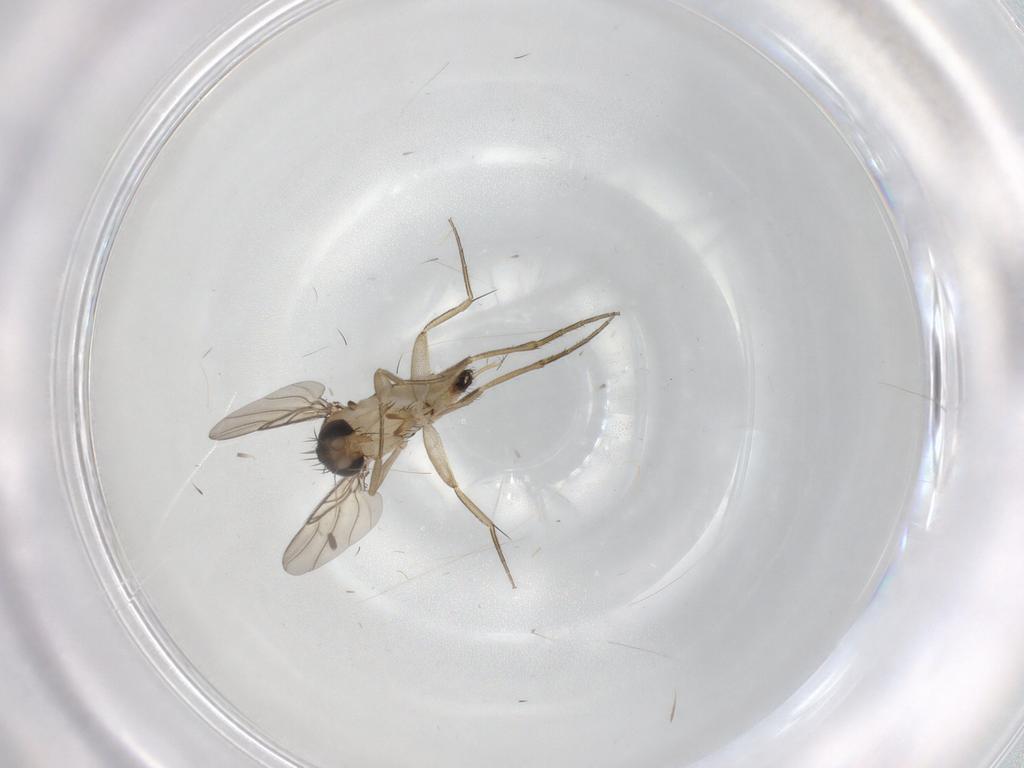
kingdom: Animalia
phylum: Arthropoda
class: Insecta
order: Diptera
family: Phoridae
